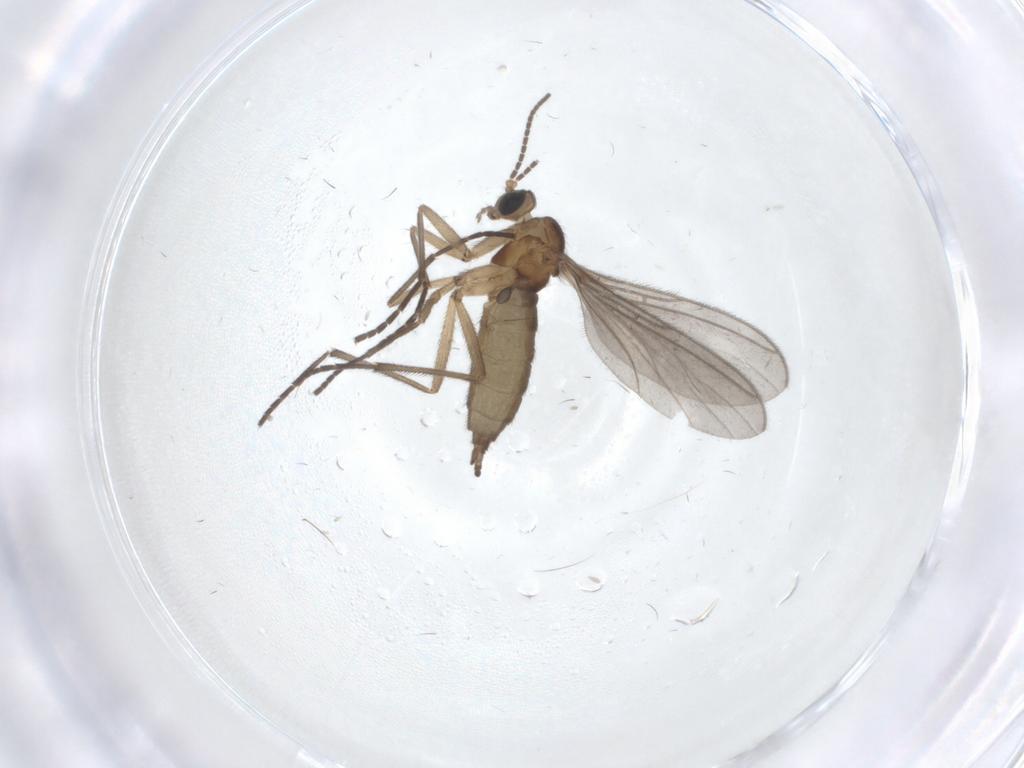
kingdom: Animalia
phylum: Arthropoda
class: Insecta
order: Diptera
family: Sciaridae
